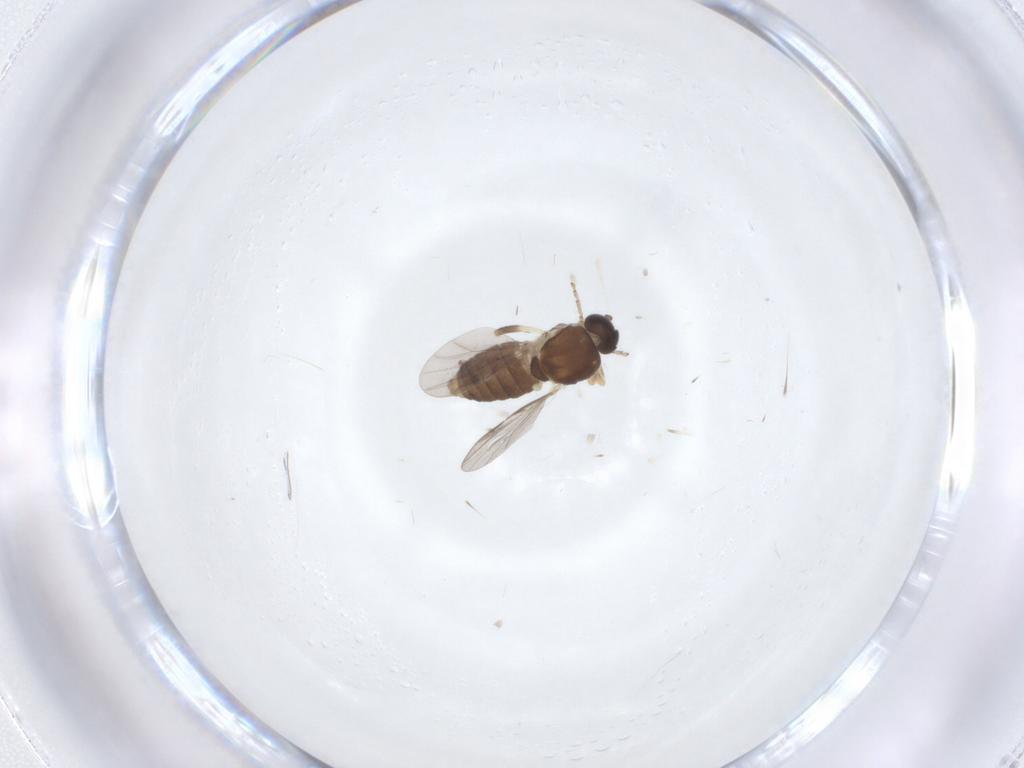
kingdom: Animalia
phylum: Arthropoda
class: Insecta
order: Diptera
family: Ceratopogonidae
